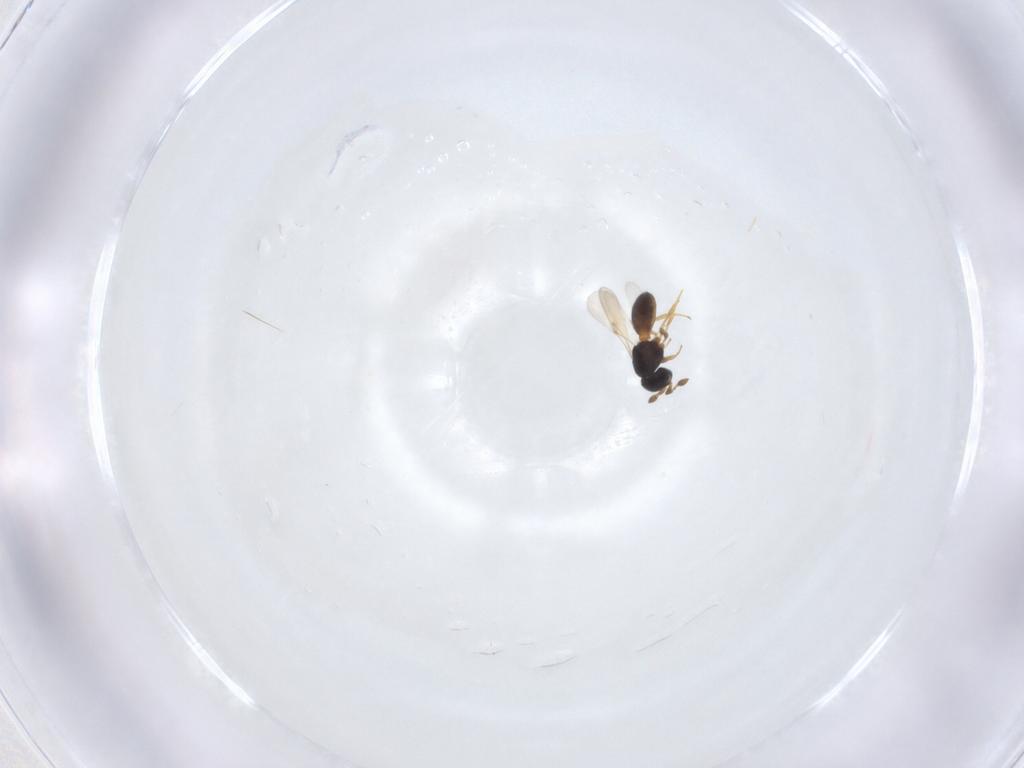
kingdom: Animalia
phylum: Arthropoda
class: Insecta
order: Hymenoptera
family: Scelionidae
